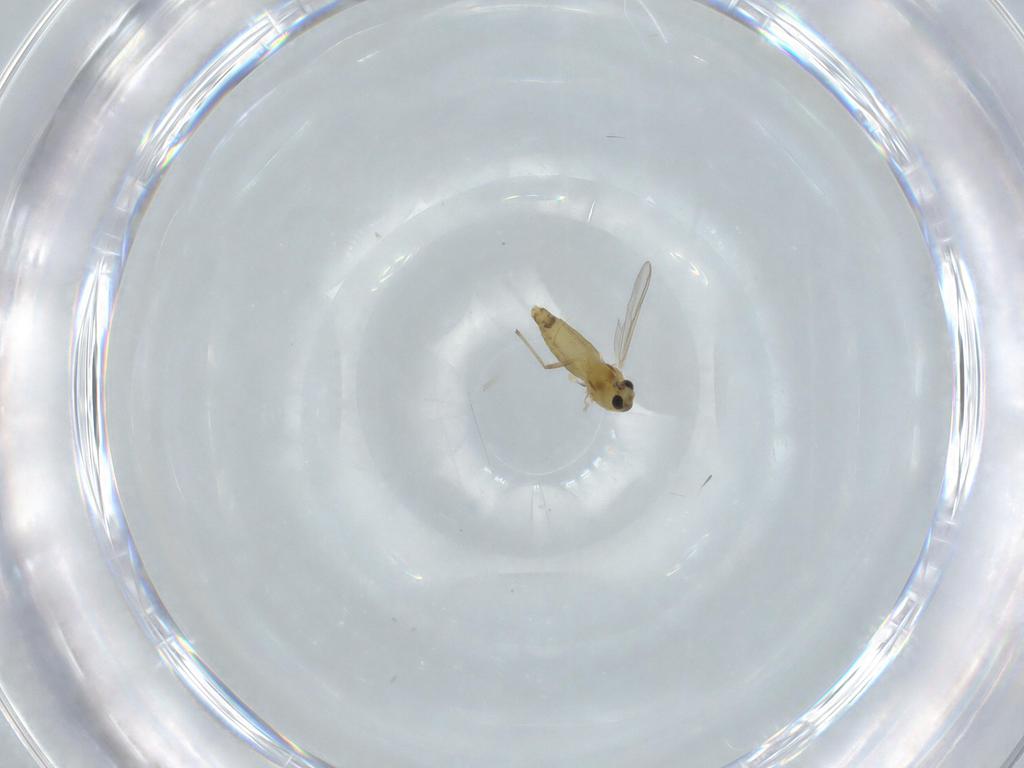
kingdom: Animalia
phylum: Arthropoda
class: Insecta
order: Diptera
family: Chironomidae
